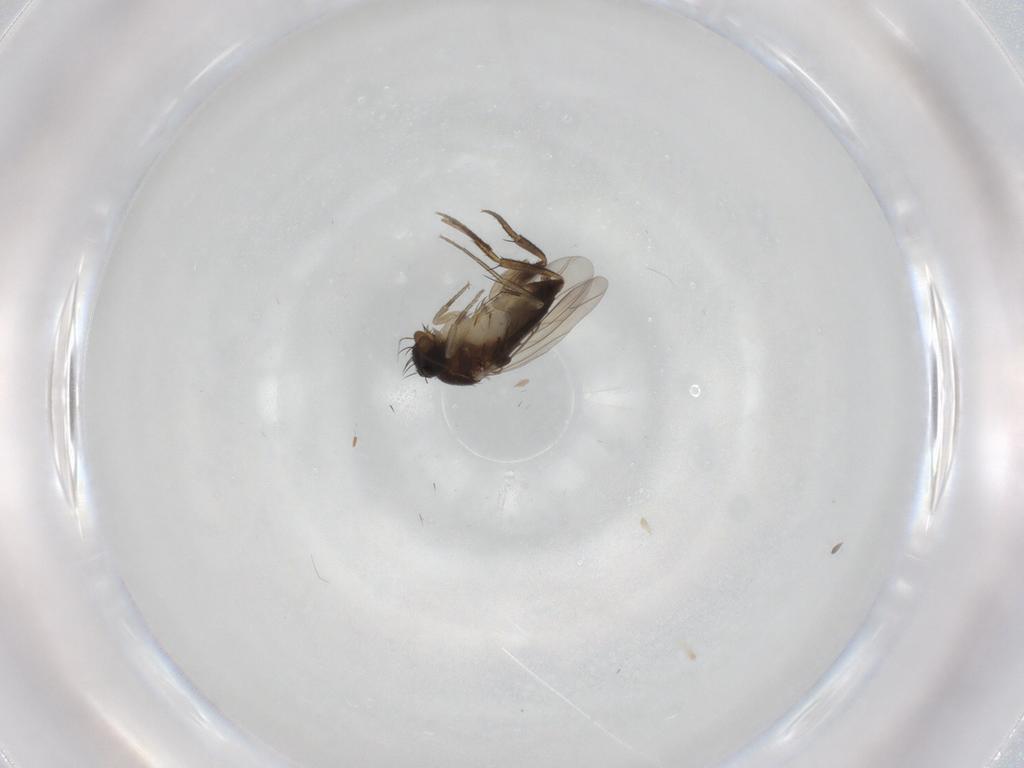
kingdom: Animalia
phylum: Arthropoda
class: Insecta
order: Diptera
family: Phoridae
